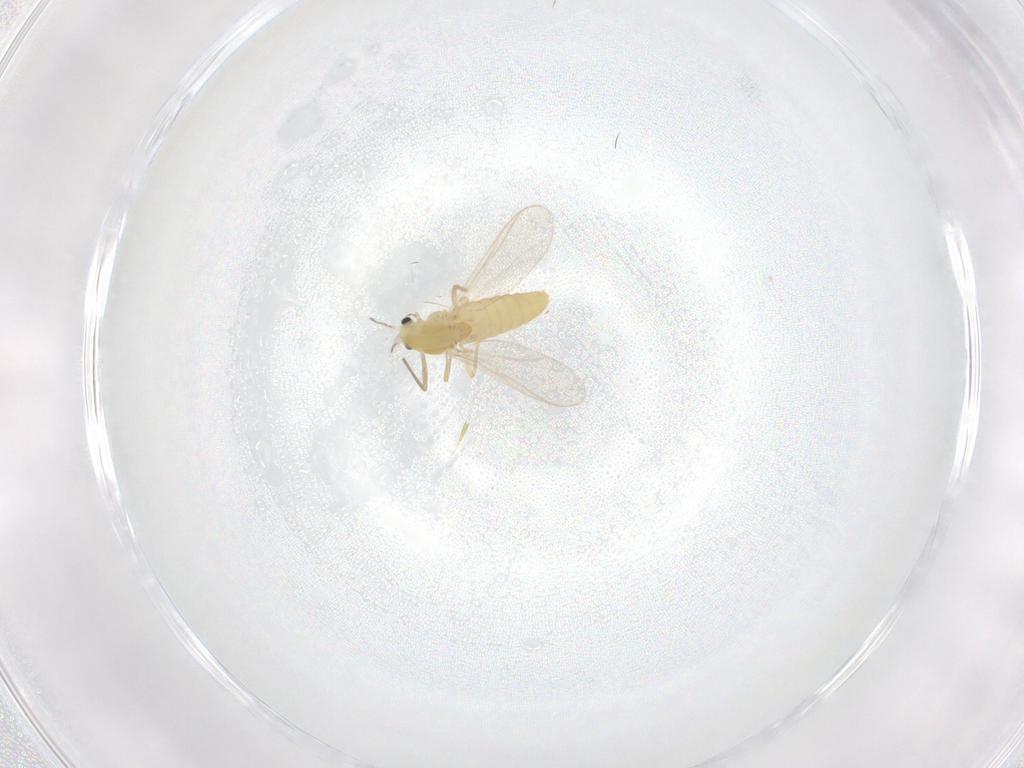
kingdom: Animalia
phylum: Arthropoda
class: Insecta
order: Diptera
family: Chironomidae
